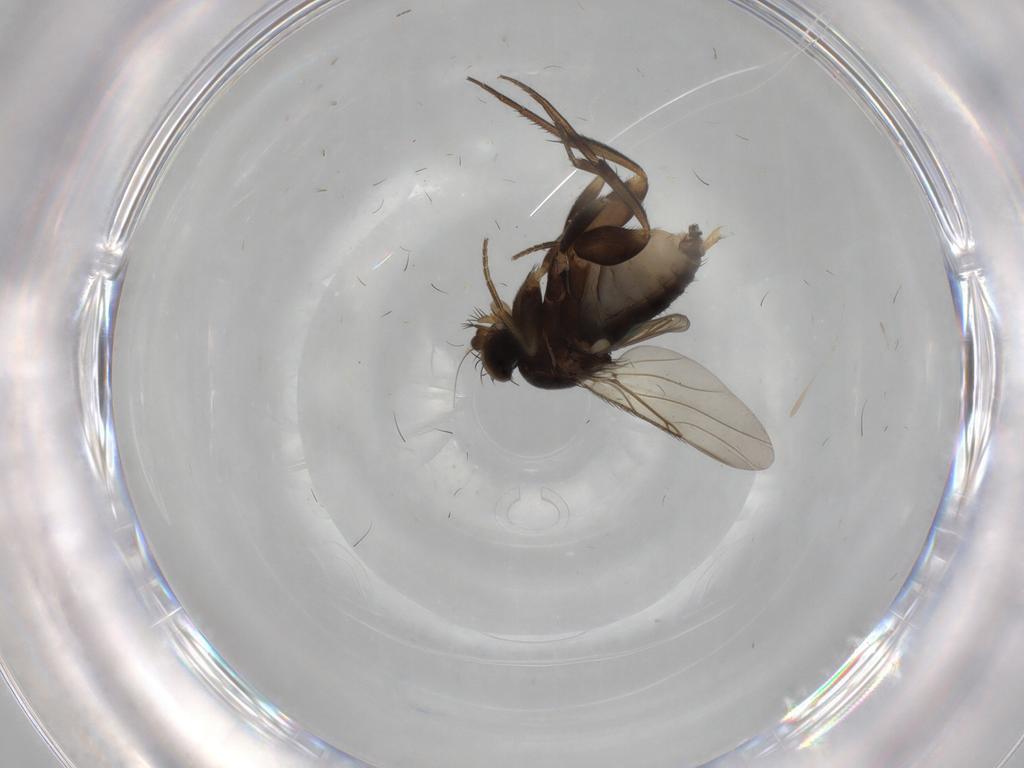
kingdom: Animalia
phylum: Arthropoda
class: Insecta
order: Diptera
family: Phoridae
